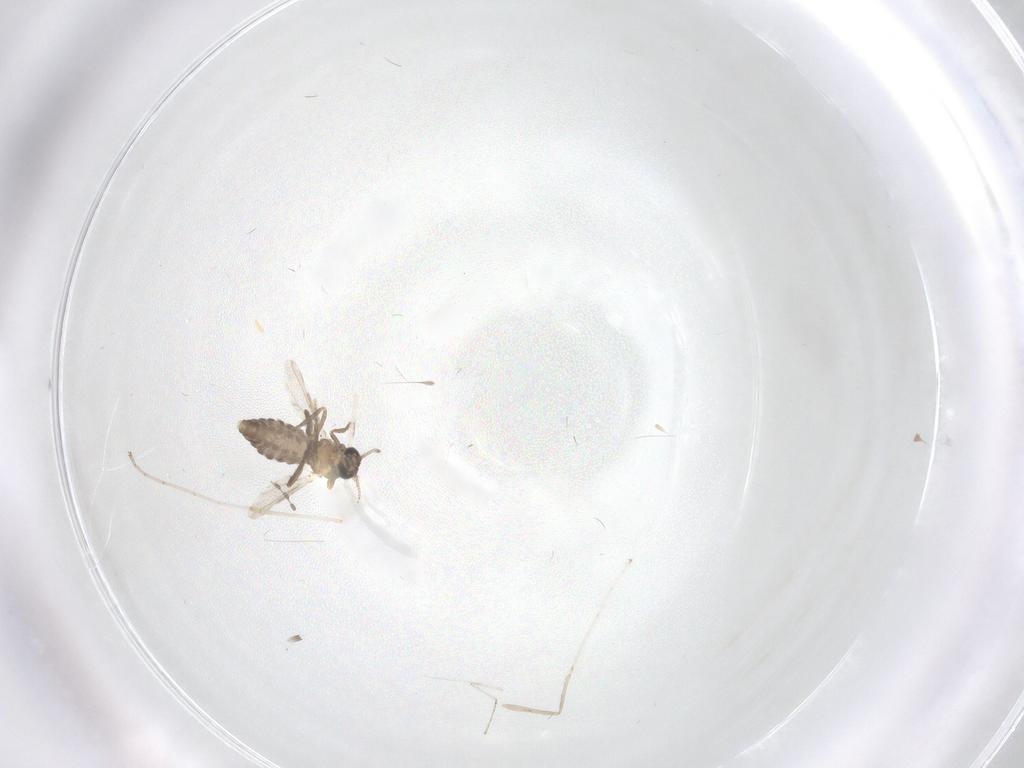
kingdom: Animalia
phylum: Arthropoda
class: Insecta
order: Diptera
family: Ceratopogonidae
